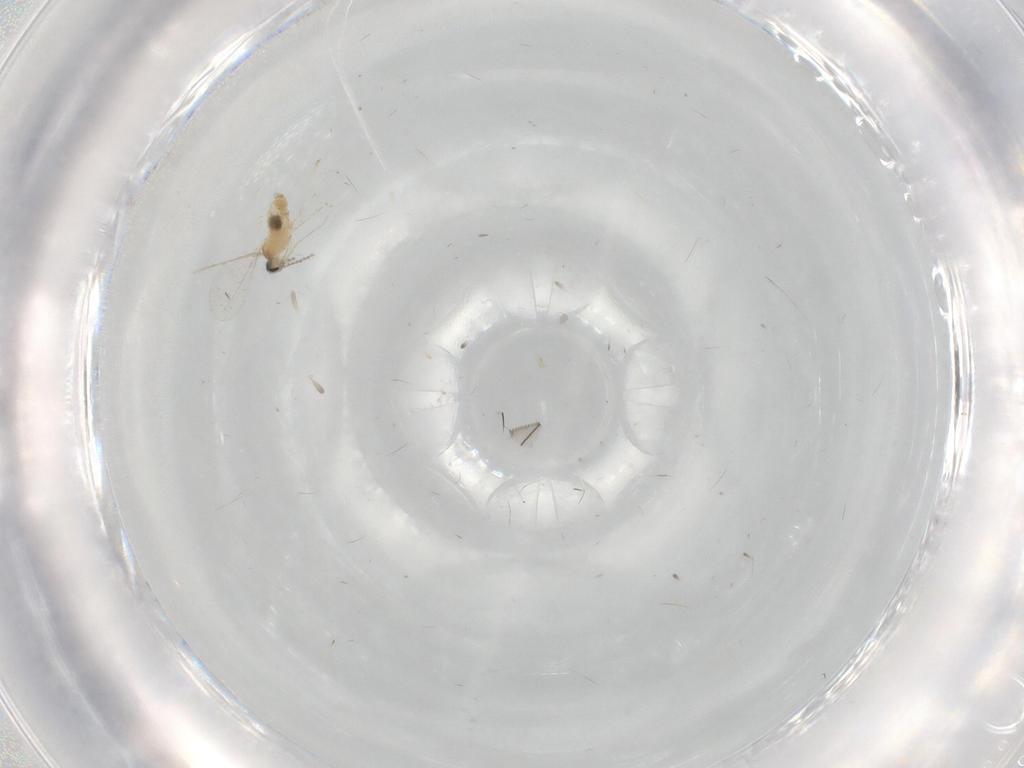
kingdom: Animalia
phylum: Arthropoda
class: Insecta
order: Diptera
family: Cecidomyiidae
